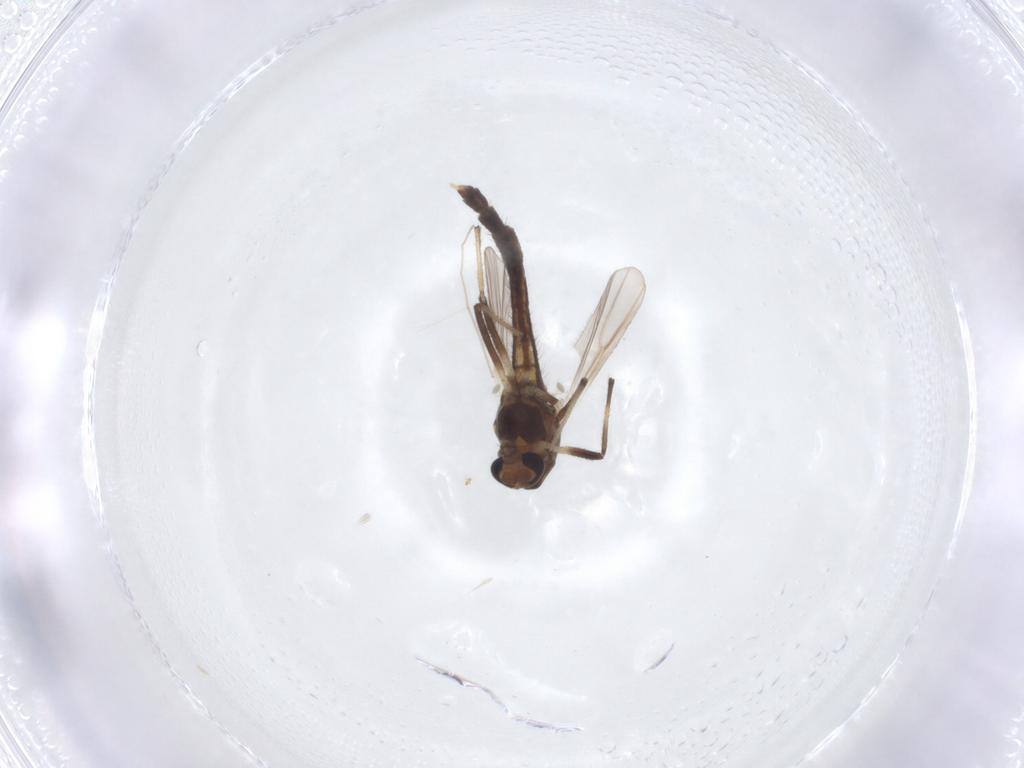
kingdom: Animalia
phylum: Arthropoda
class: Insecta
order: Diptera
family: Chironomidae
